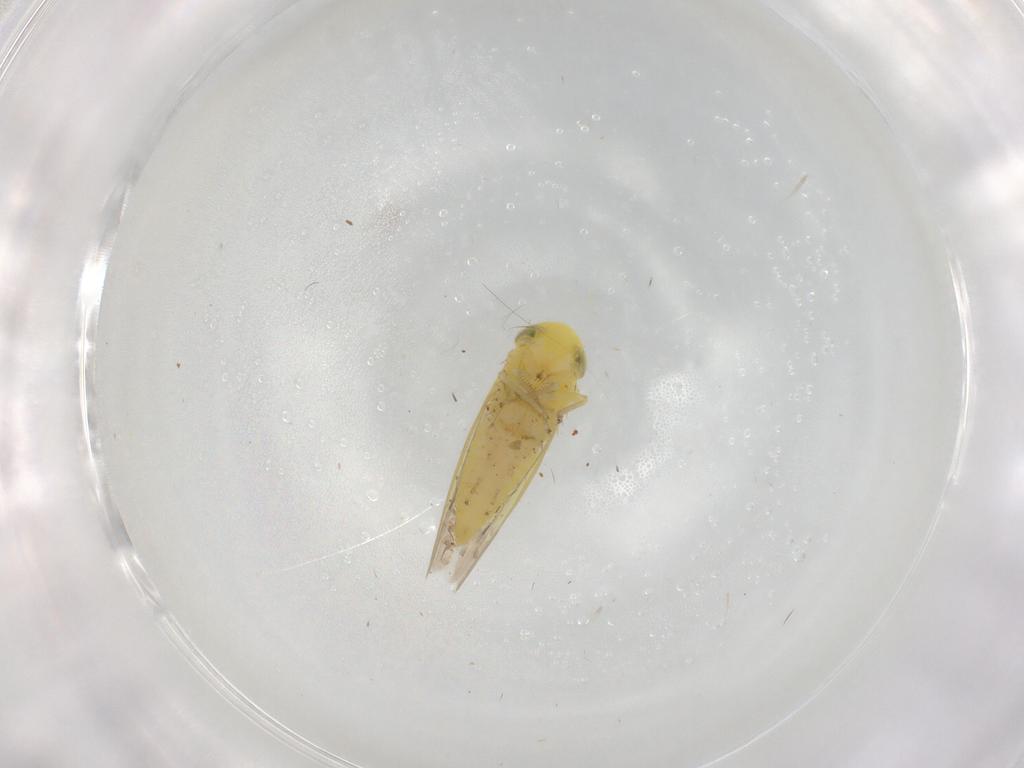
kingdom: Animalia
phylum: Arthropoda
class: Insecta
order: Hemiptera
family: Cicadellidae
